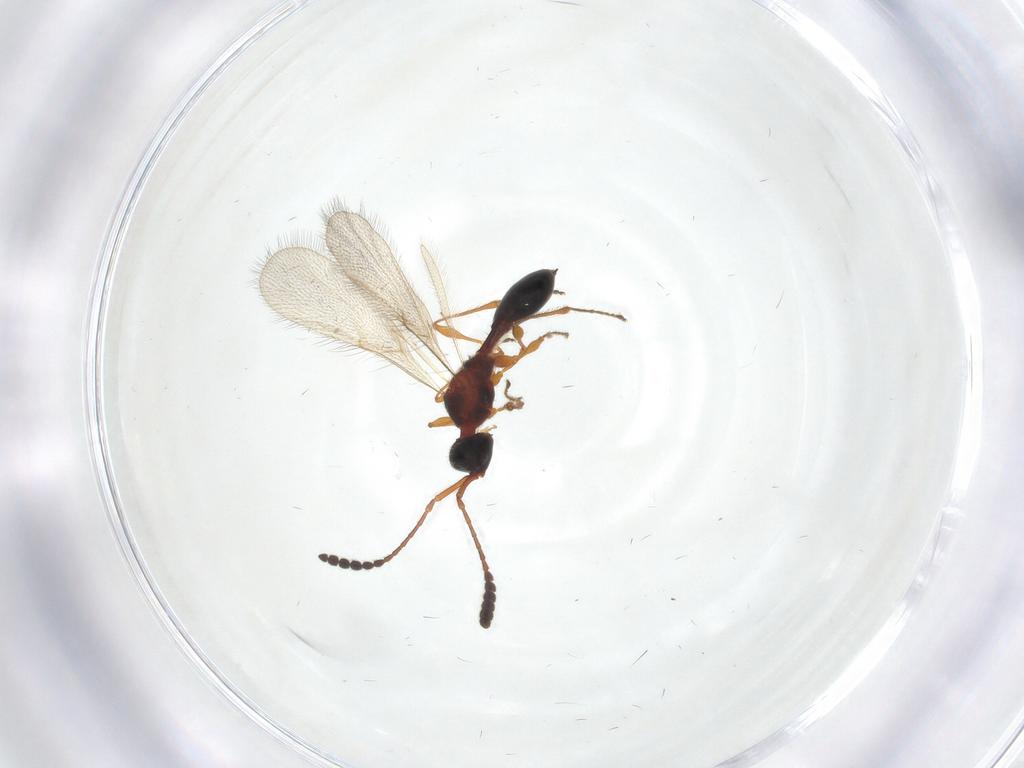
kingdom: Animalia
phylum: Arthropoda
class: Insecta
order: Hymenoptera
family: Diapriidae
